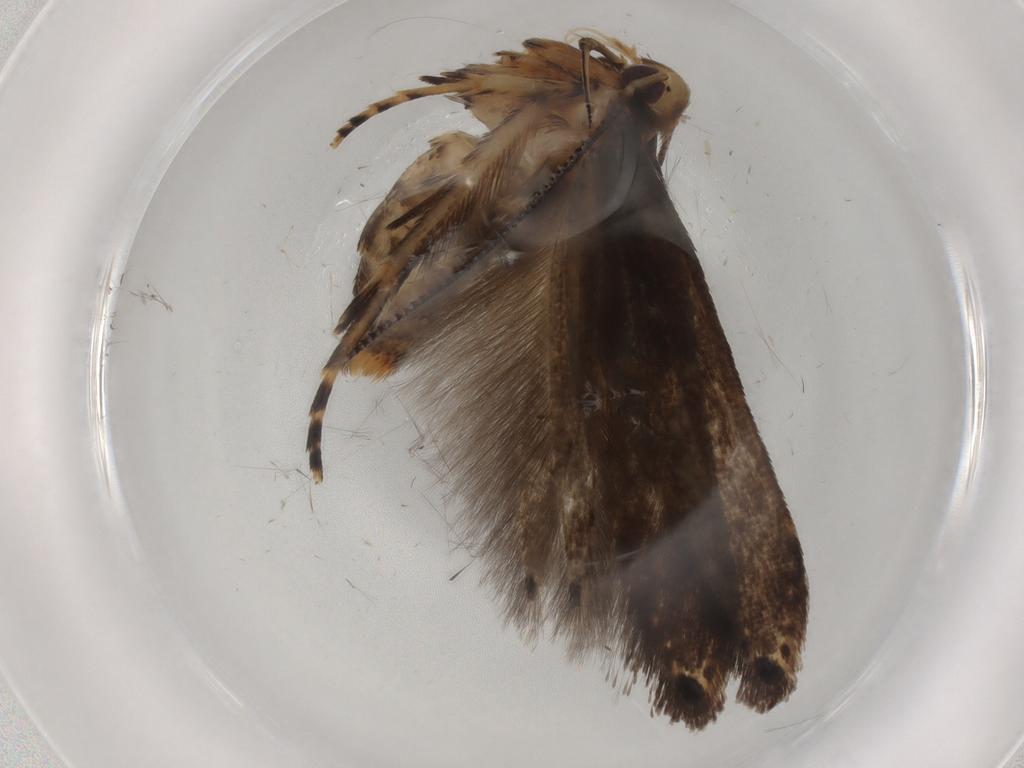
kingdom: Animalia
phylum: Arthropoda
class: Insecta
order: Lepidoptera
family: Cosmopterigidae
